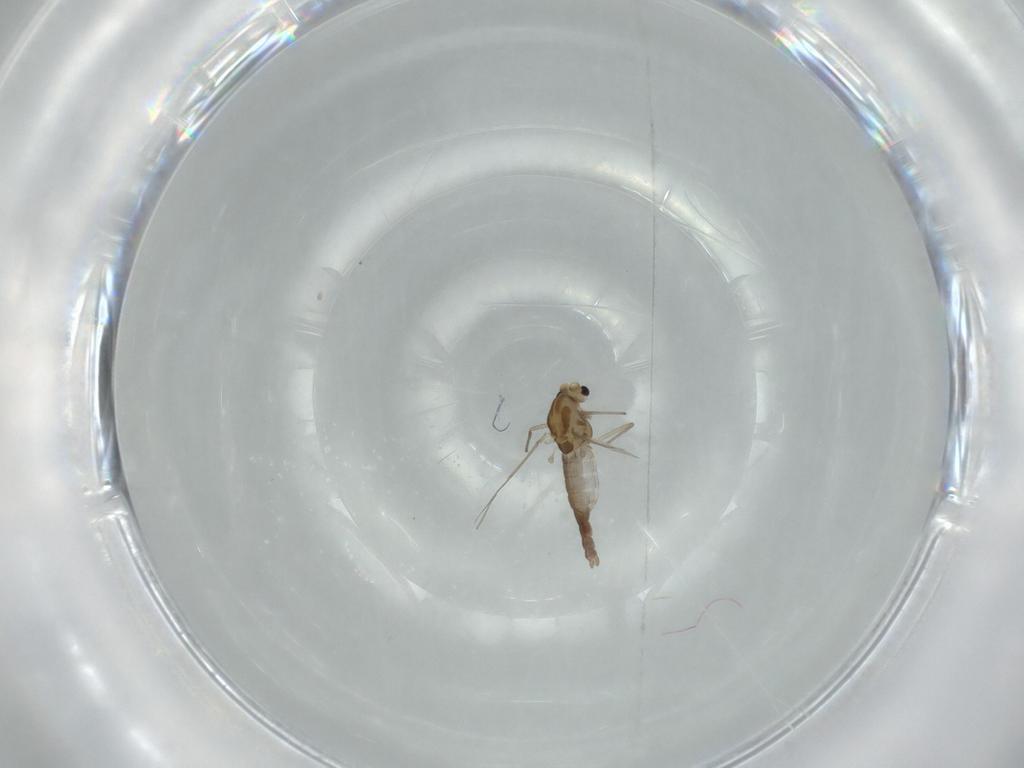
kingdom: Animalia
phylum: Arthropoda
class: Insecta
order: Diptera
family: Chironomidae
